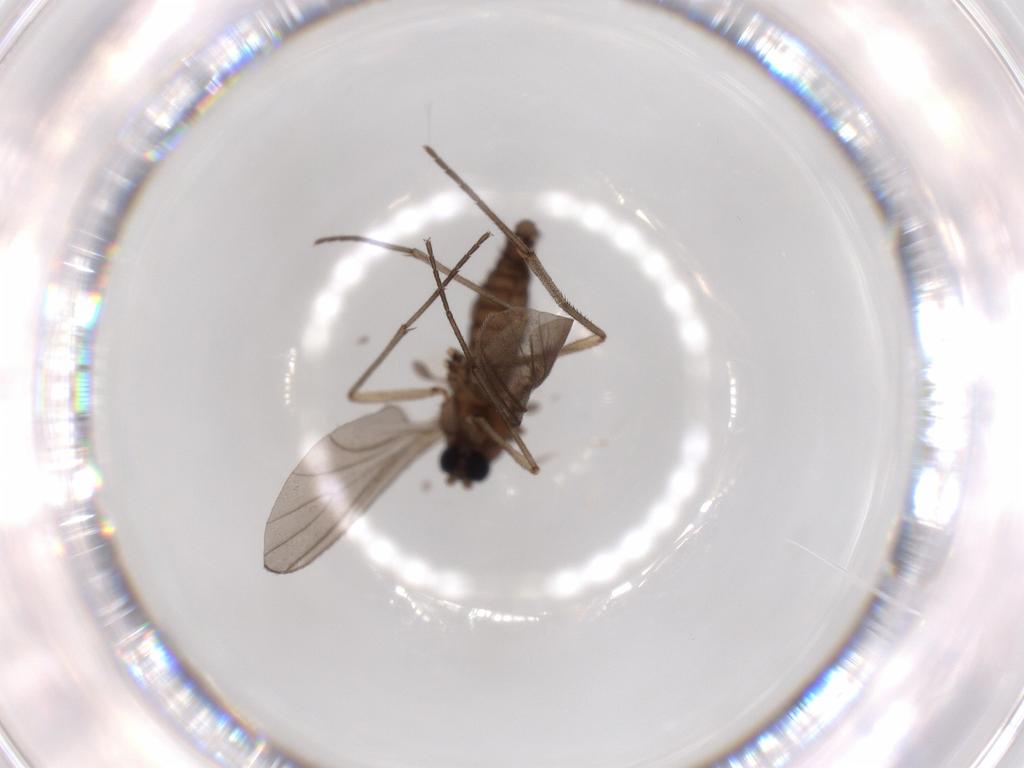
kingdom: Animalia
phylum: Arthropoda
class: Insecta
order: Diptera
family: Sciaridae
